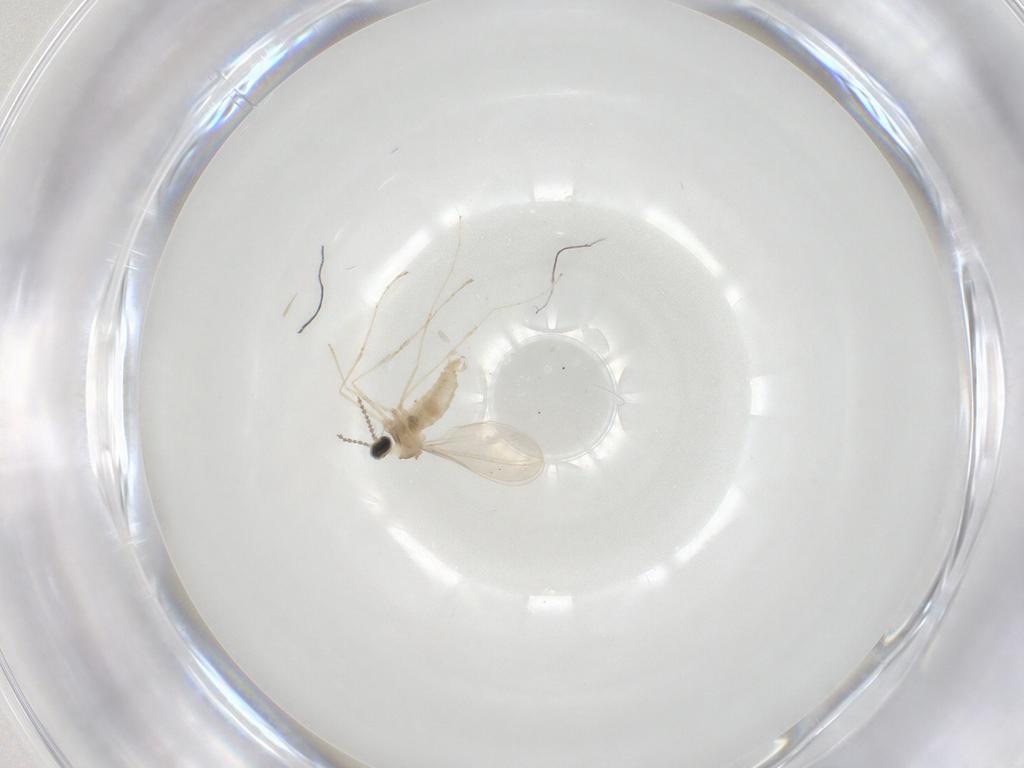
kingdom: Animalia
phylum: Arthropoda
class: Insecta
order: Diptera
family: Cecidomyiidae
